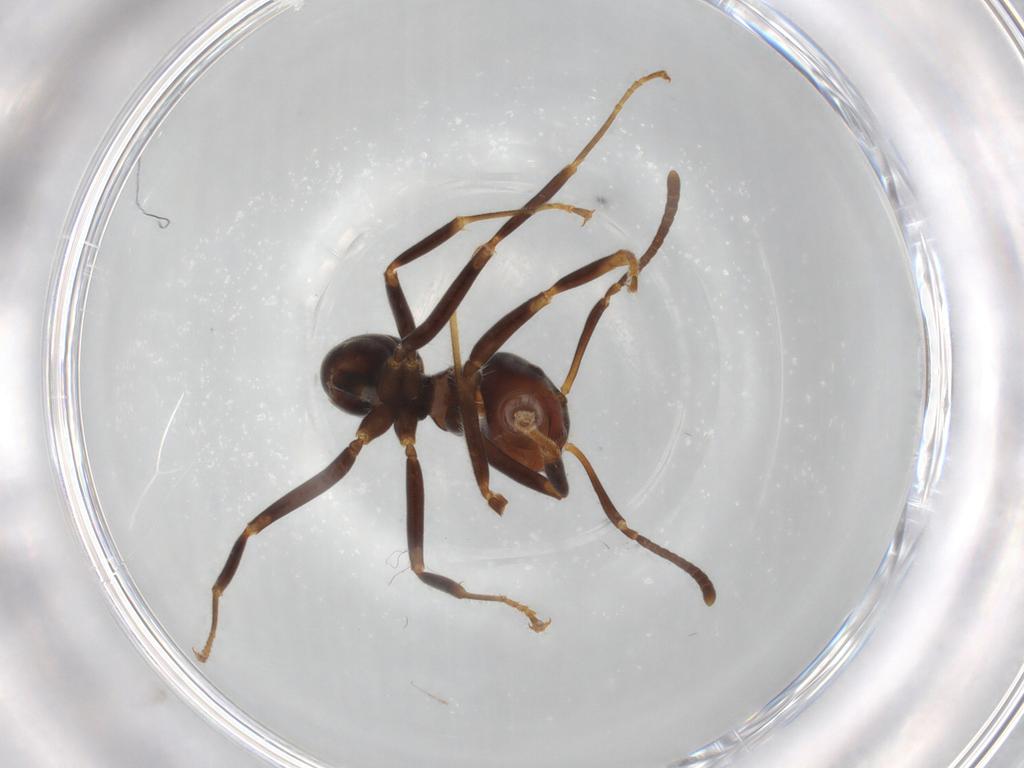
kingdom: Animalia
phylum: Arthropoda
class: Insecta
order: Hymenoptera
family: Formicidae
